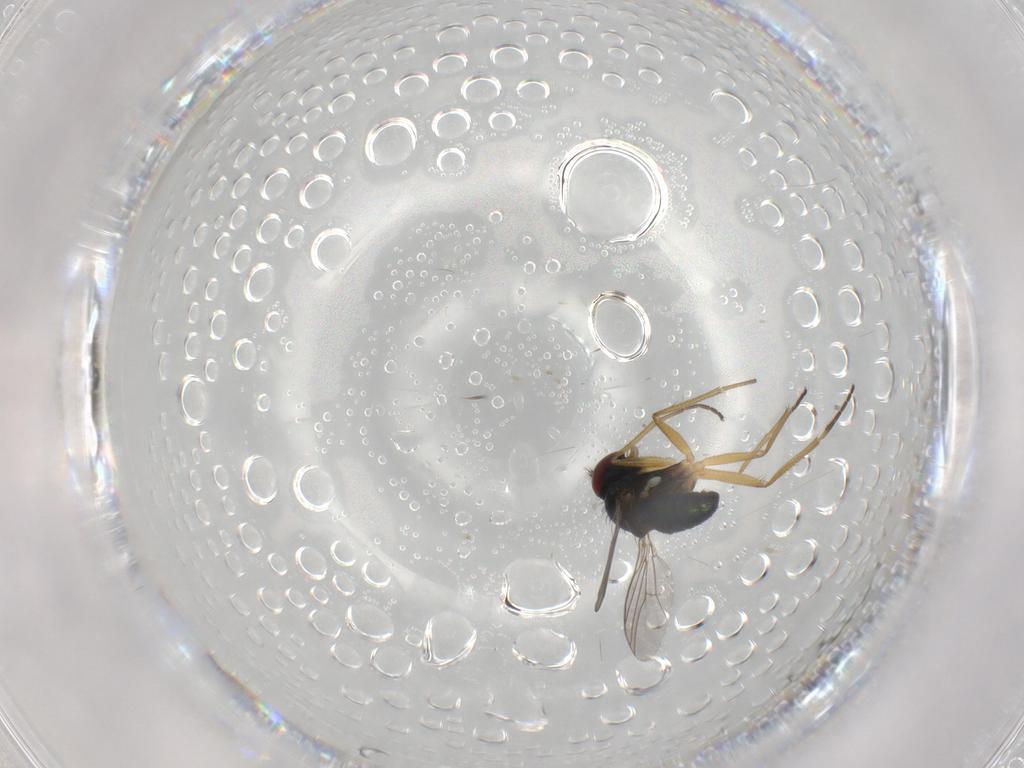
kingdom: Animalia
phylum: Arthropoda
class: Insecta
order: Diptera
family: Dolichopodidae
